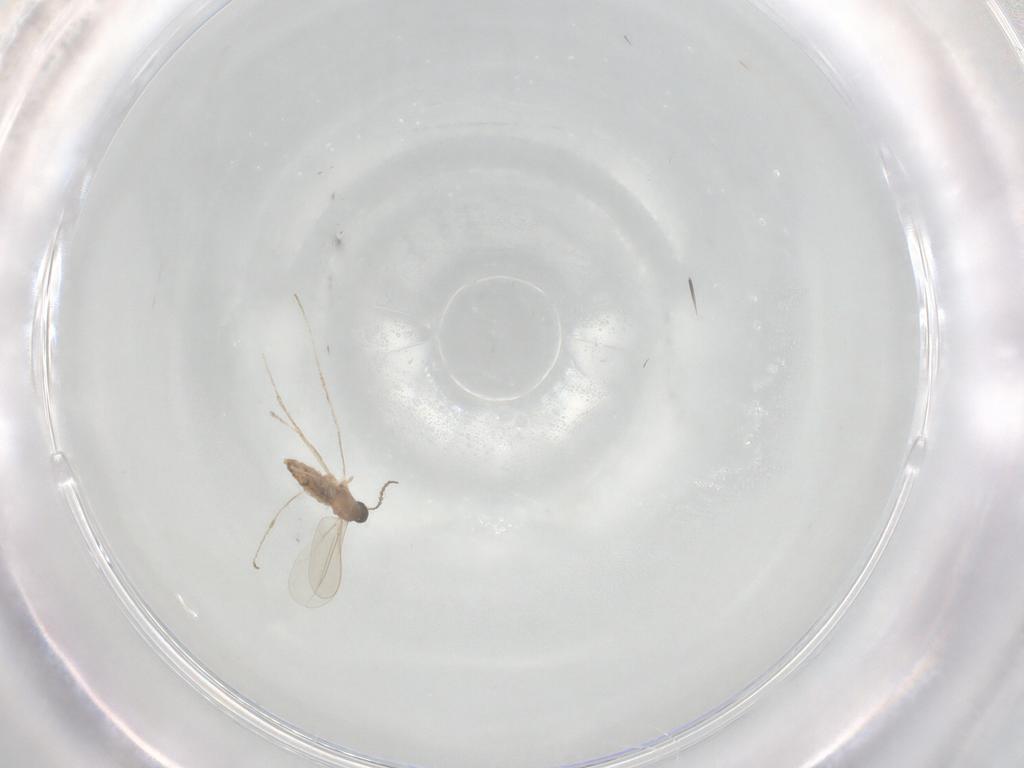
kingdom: Animalia
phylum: Arthropoda
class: Insecta
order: Diptera
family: Cecidomyiidae
